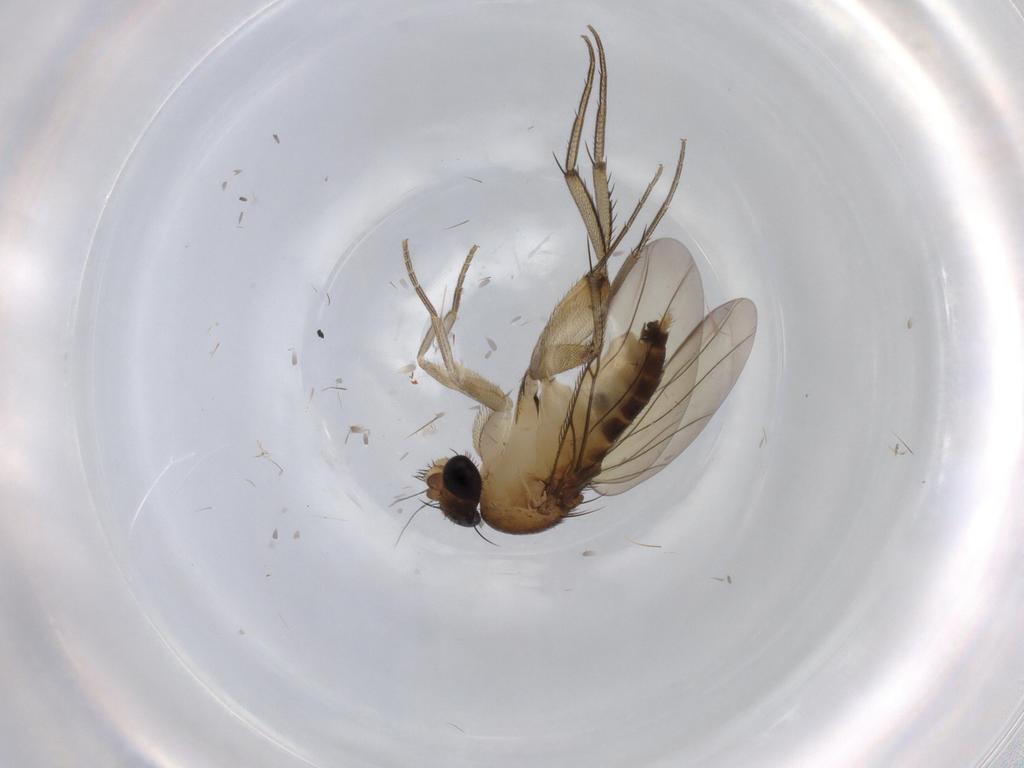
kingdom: Animalia
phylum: Arthropoda
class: Insecta
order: Diptera
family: Phoridae
